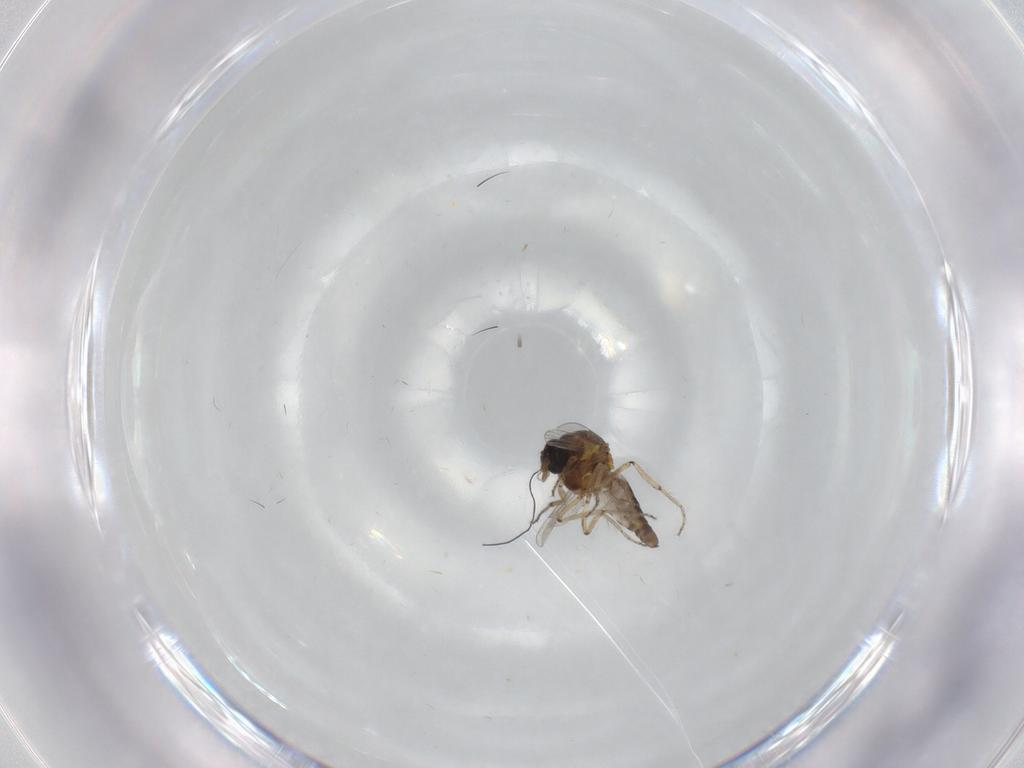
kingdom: Animalia
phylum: Arthropoda
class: Insecta
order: Diptera
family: Ceratopogonidae
